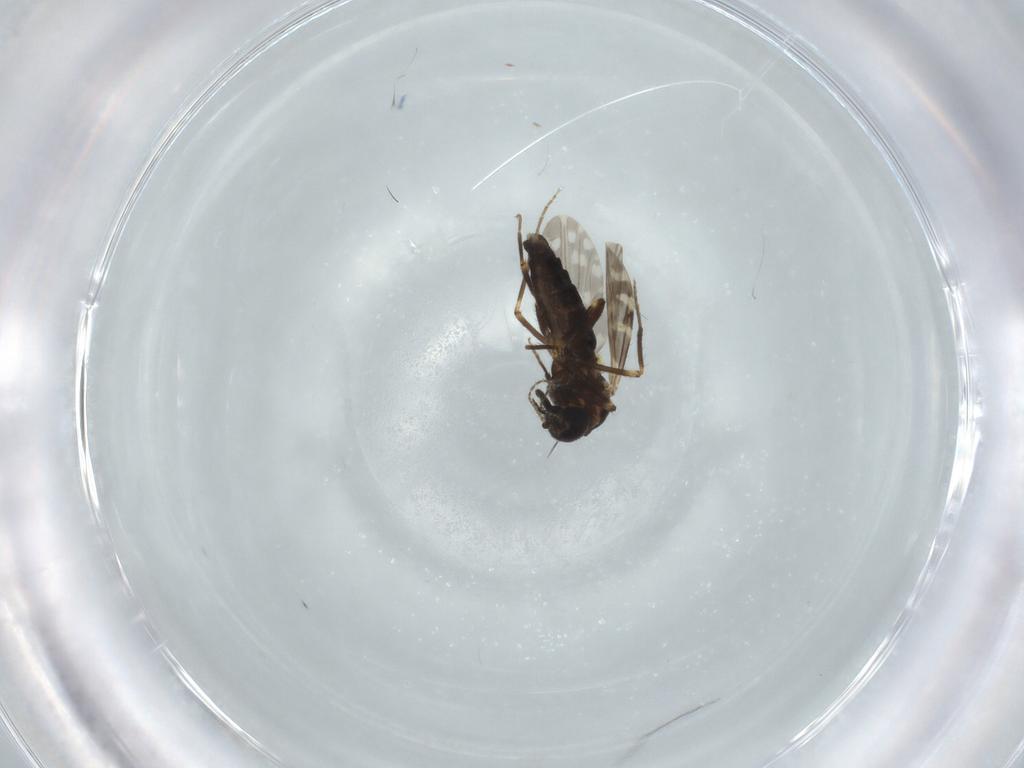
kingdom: Animalia
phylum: Arthropoda
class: Insecta
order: Diptera
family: Ceratopogonidae
